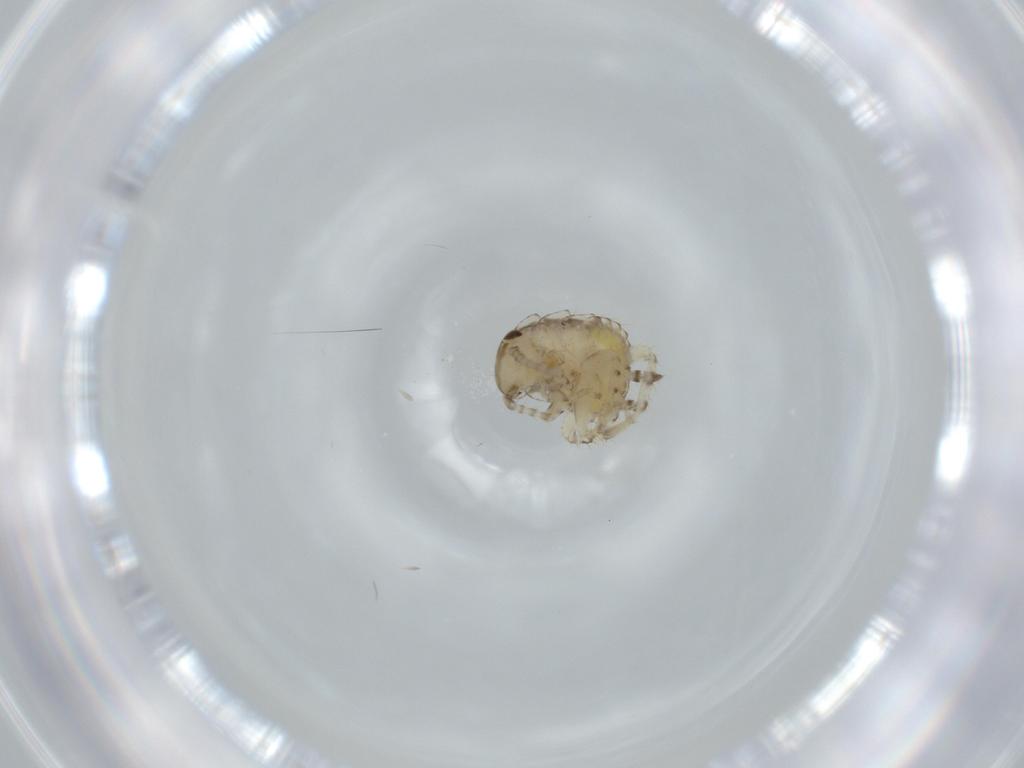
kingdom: Animalia
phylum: Arthropoda
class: Insecta
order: Blattodea
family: Ectobiidae
